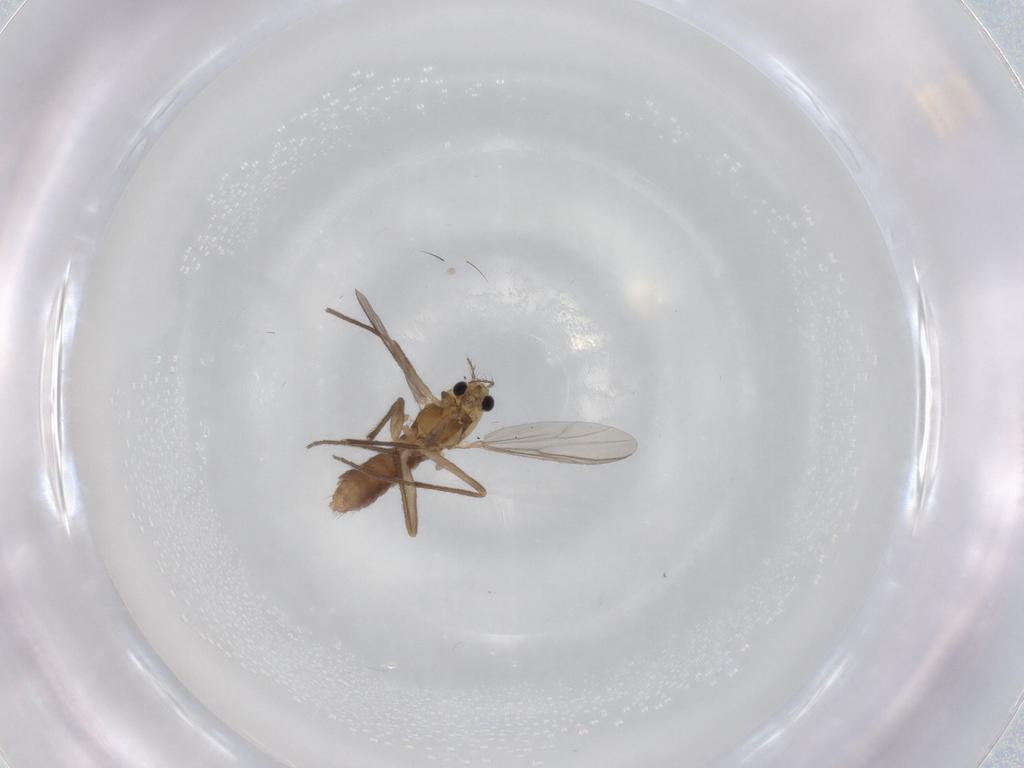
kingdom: Animalia
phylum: Arthropoda
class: Insecta
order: Diptera
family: Chironomidae
